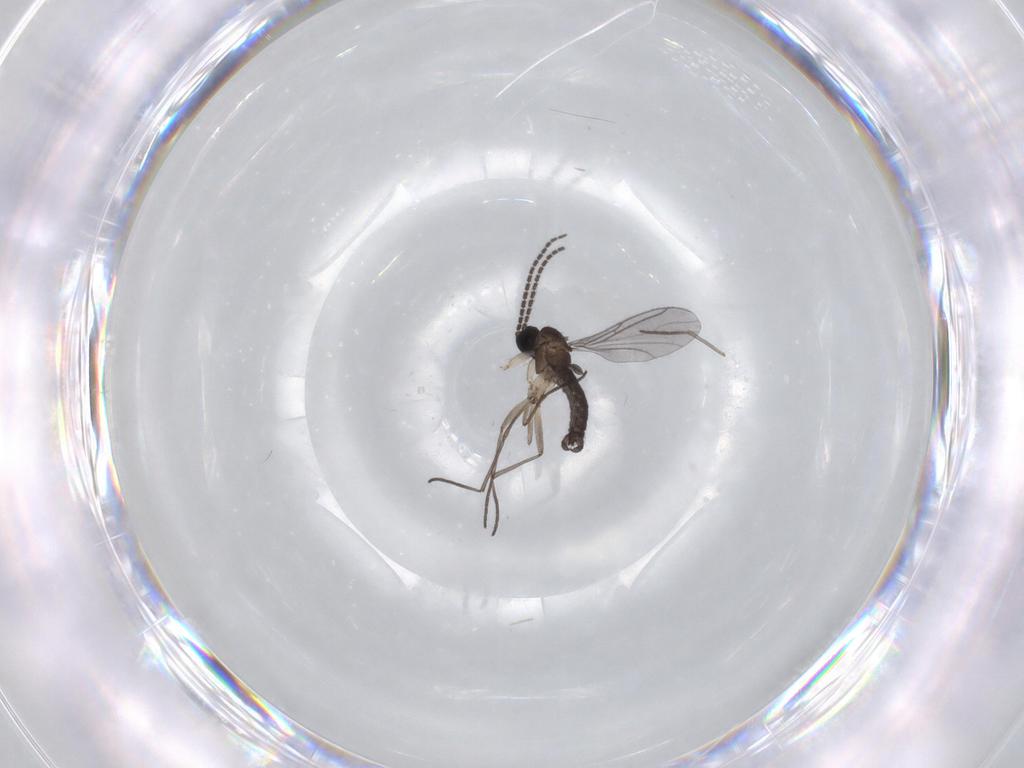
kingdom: Animalia
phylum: Arthropoda
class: Insecta
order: Diptera
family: Sciaridae
